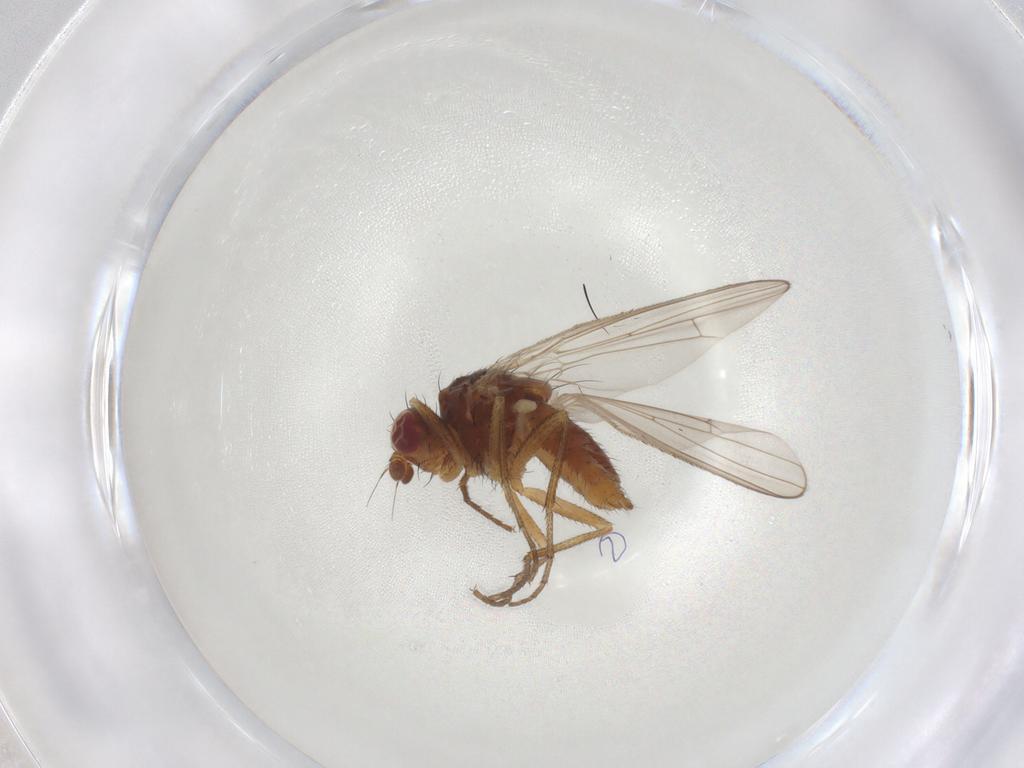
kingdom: Animalia
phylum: Arthropoda
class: Insecta
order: Diptera
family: Heleomyzidae
